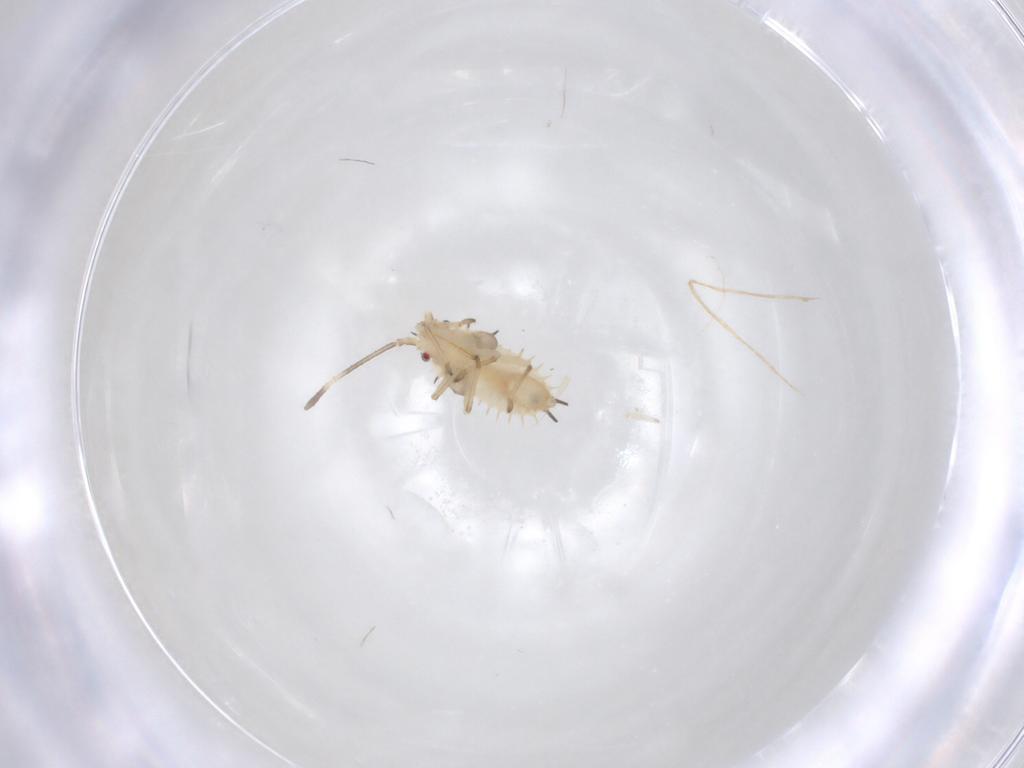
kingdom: Animalia
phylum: Arthropoda
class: Insecta
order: Hemiptera
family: Tingidae
